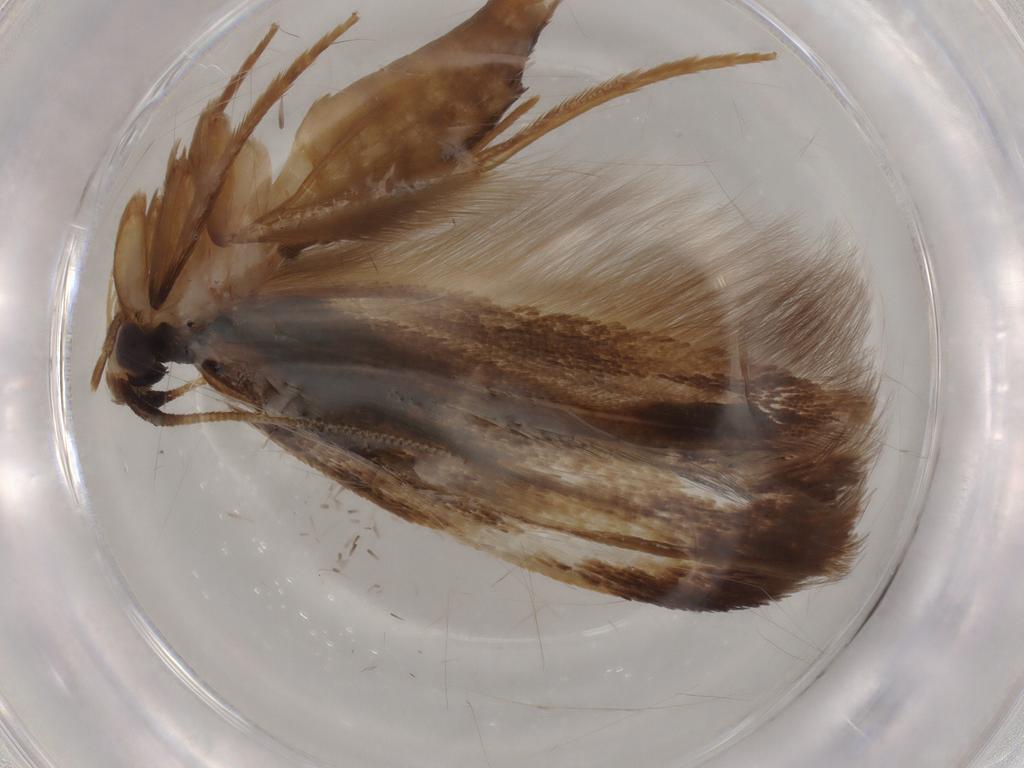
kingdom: Animalia
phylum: Arthropoda
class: Insecta
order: Lepidoptera
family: Tineidae
